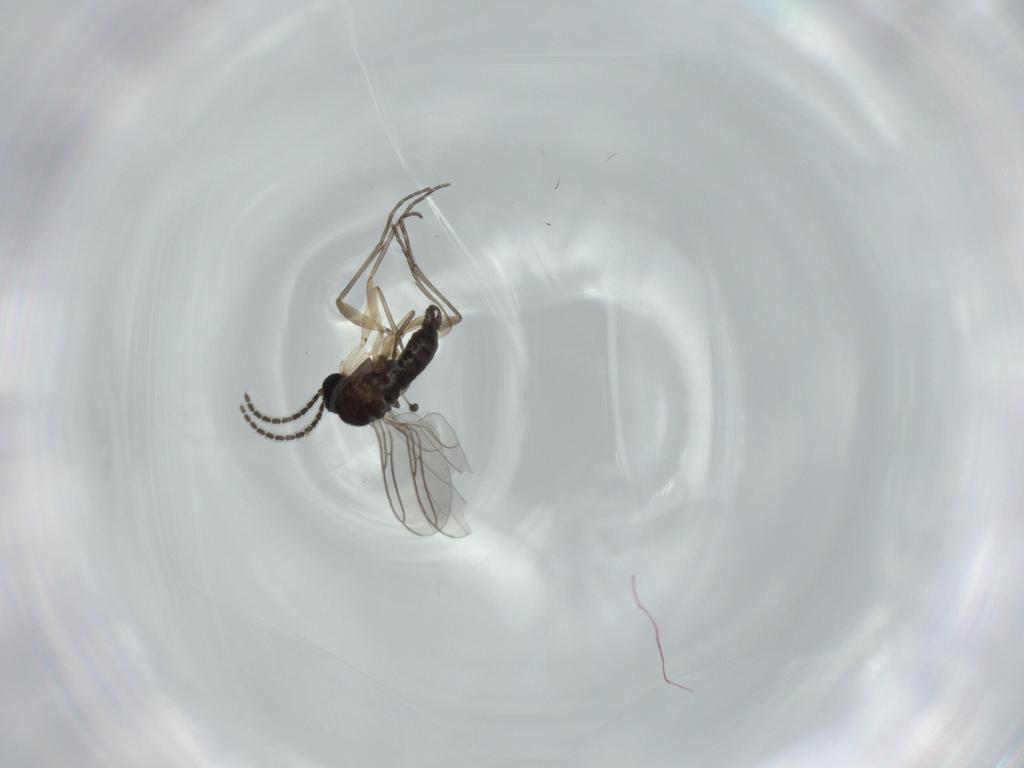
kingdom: Animalia
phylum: Arthropoda
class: Insecta
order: Diptera
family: Sciaridae
